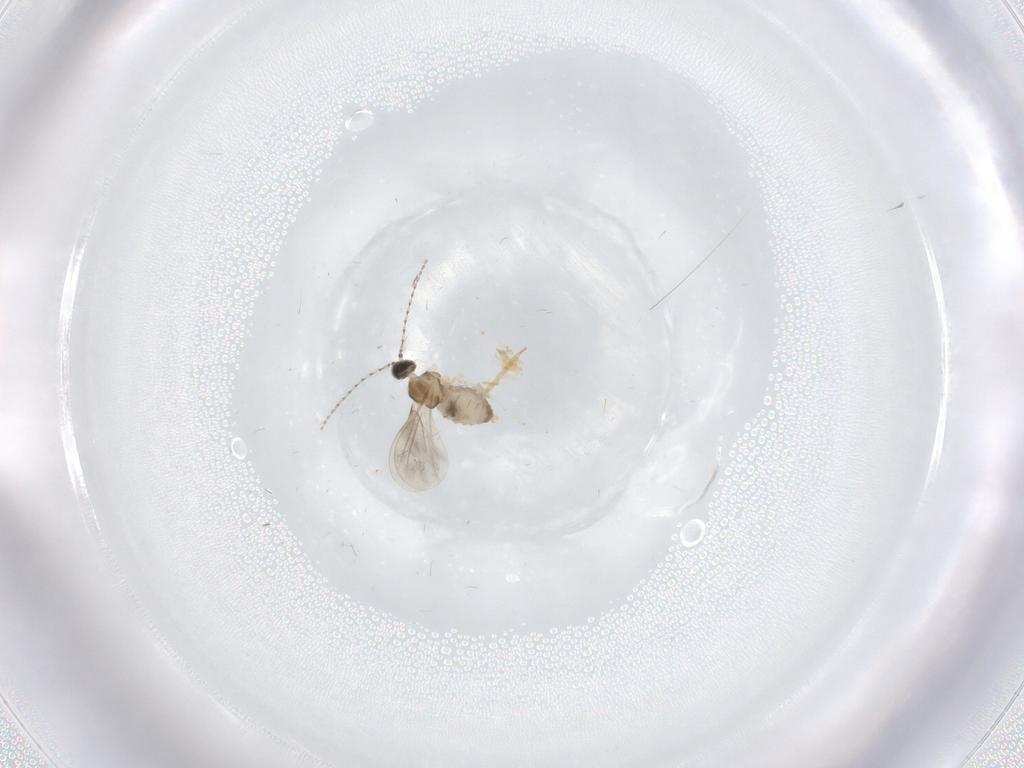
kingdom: Animalia
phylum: Arthropoda
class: Insecta
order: Diptera
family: Cecidomyiidae
